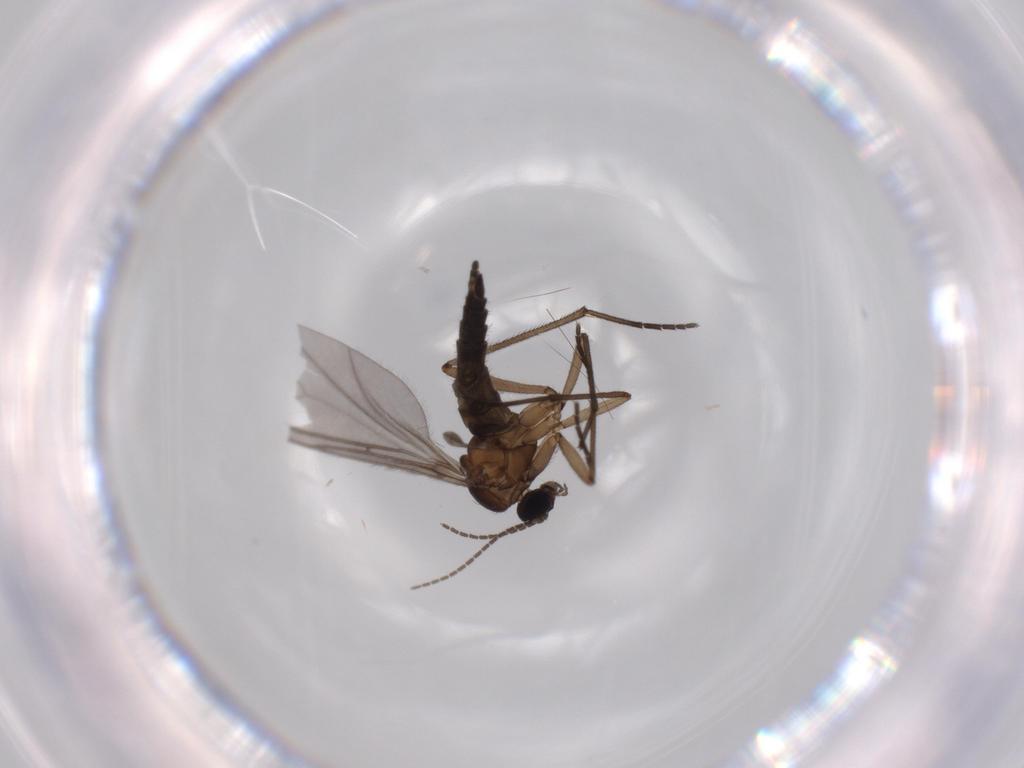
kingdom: Animalia
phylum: Arthropoda
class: Insecta
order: Diptera
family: Sciaridae
